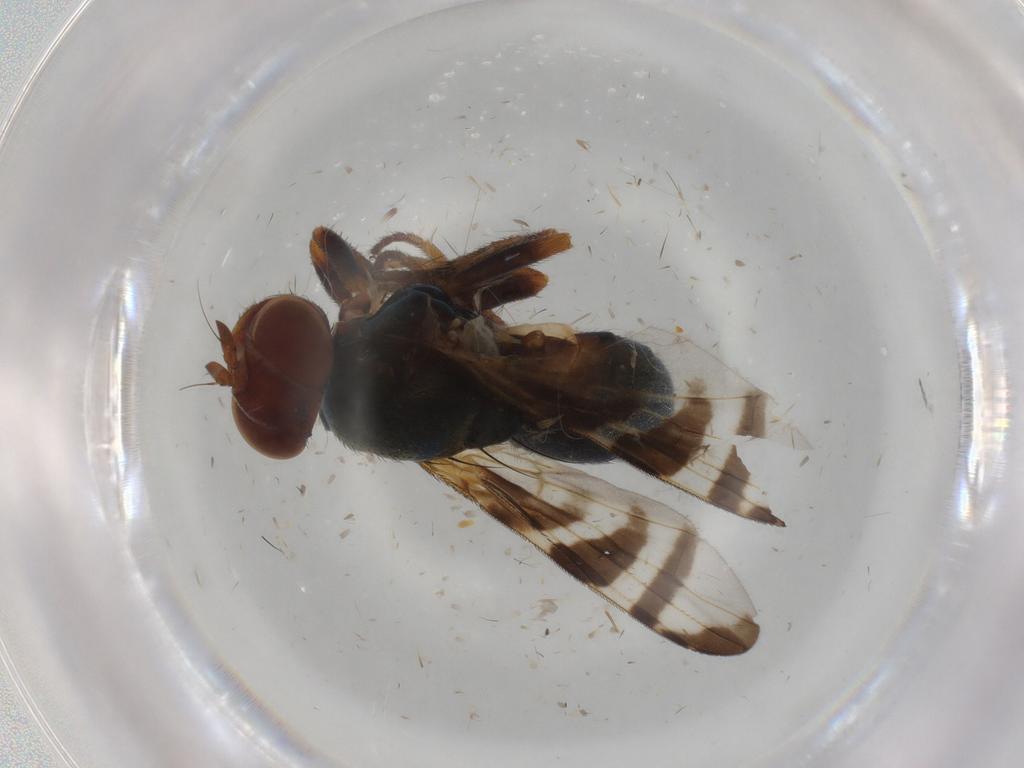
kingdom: Animalia
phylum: Arthropoda
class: Insecta
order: Diptera
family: Platystomatidae
